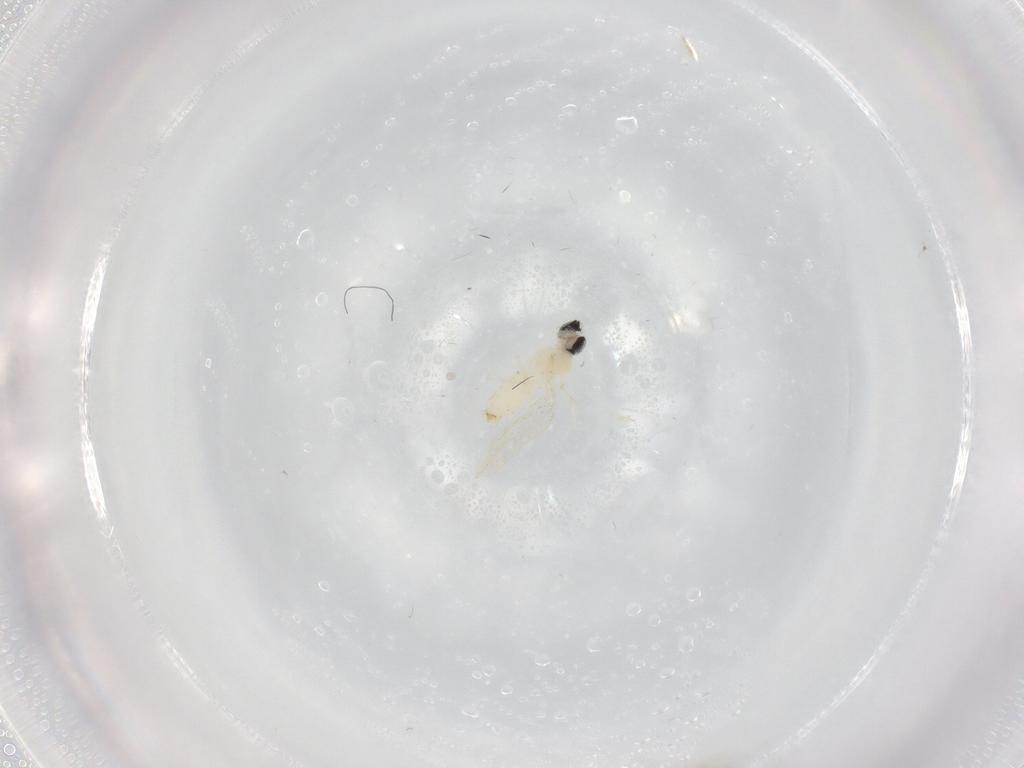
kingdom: Animalia
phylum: Arthropoda
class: Insecta
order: Diptera
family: Cecidomyiidae
